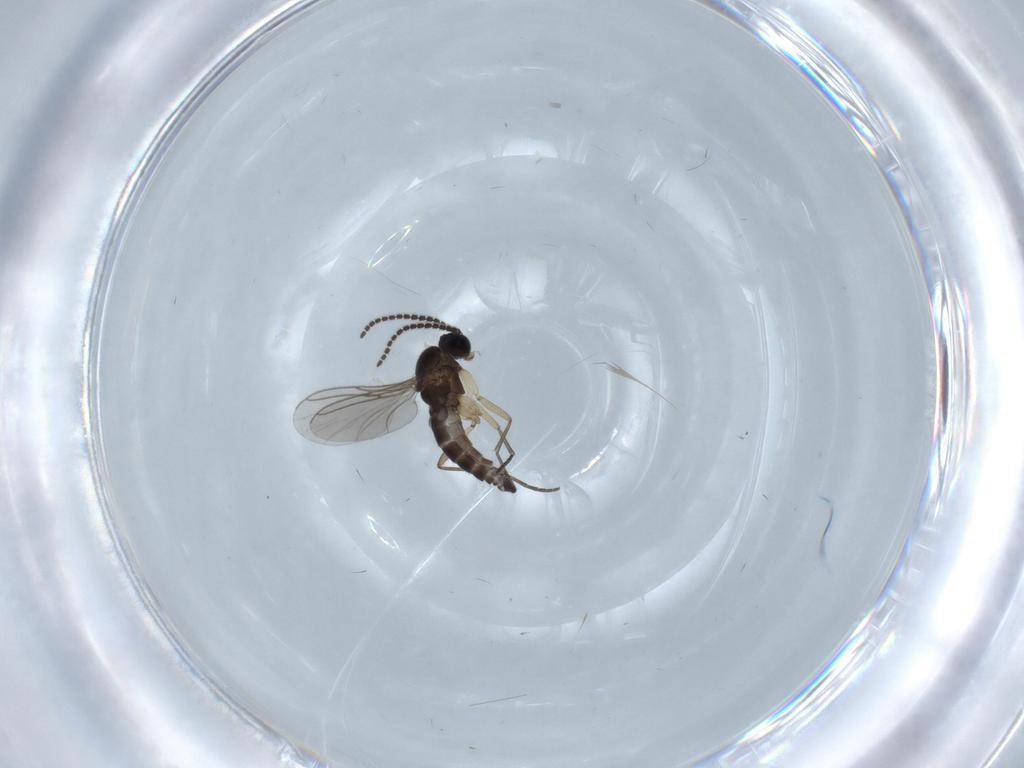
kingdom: Animalia
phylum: Arthropoda
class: Insecta
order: Diptera
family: Sciaridae
